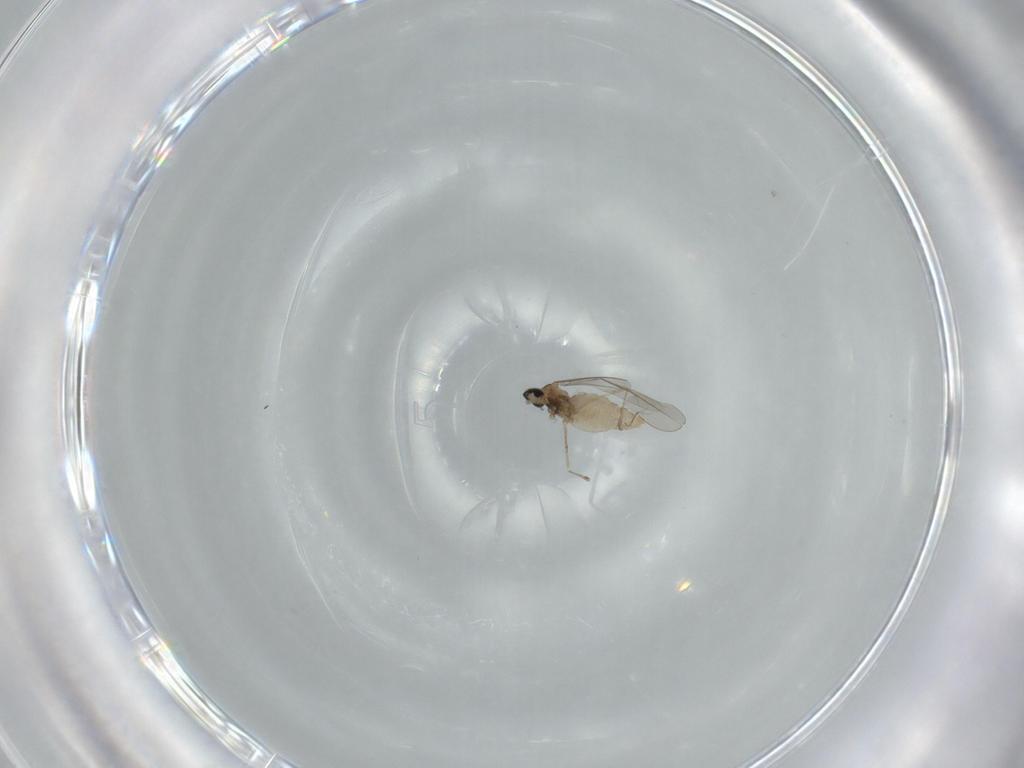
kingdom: Animalia
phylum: Arthropoda
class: Insecta
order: Diptera
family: Cecidomyiidae
